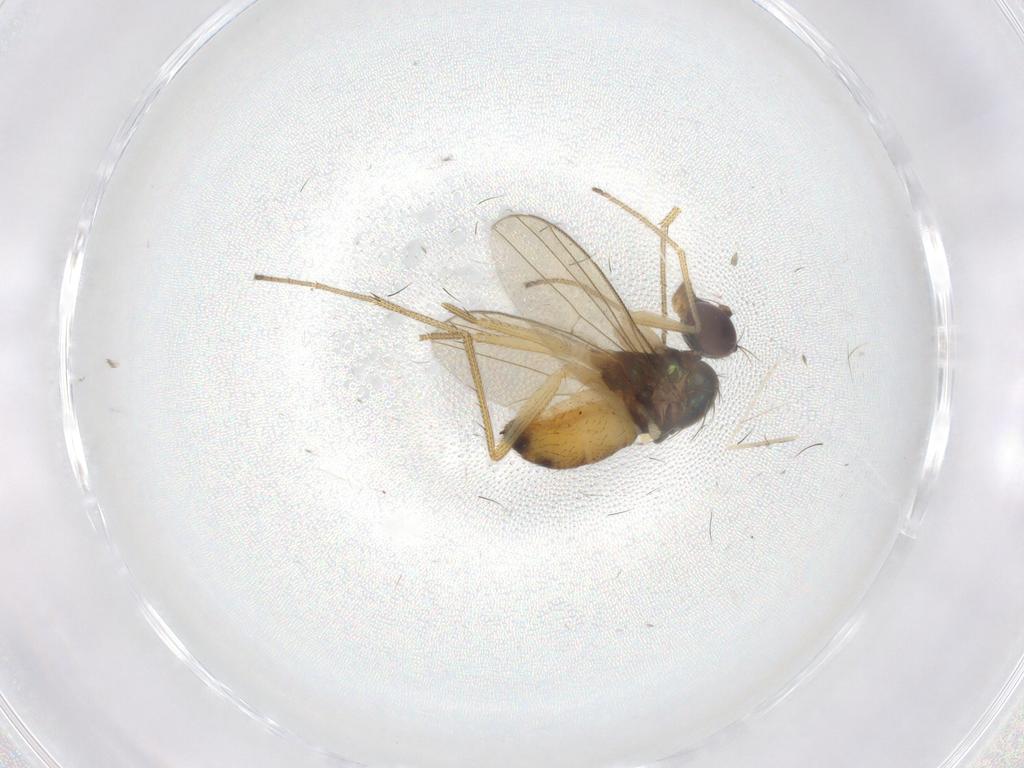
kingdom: Animalia
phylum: Arthropoda
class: Insecta
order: Diptera
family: Dolichopodidae
